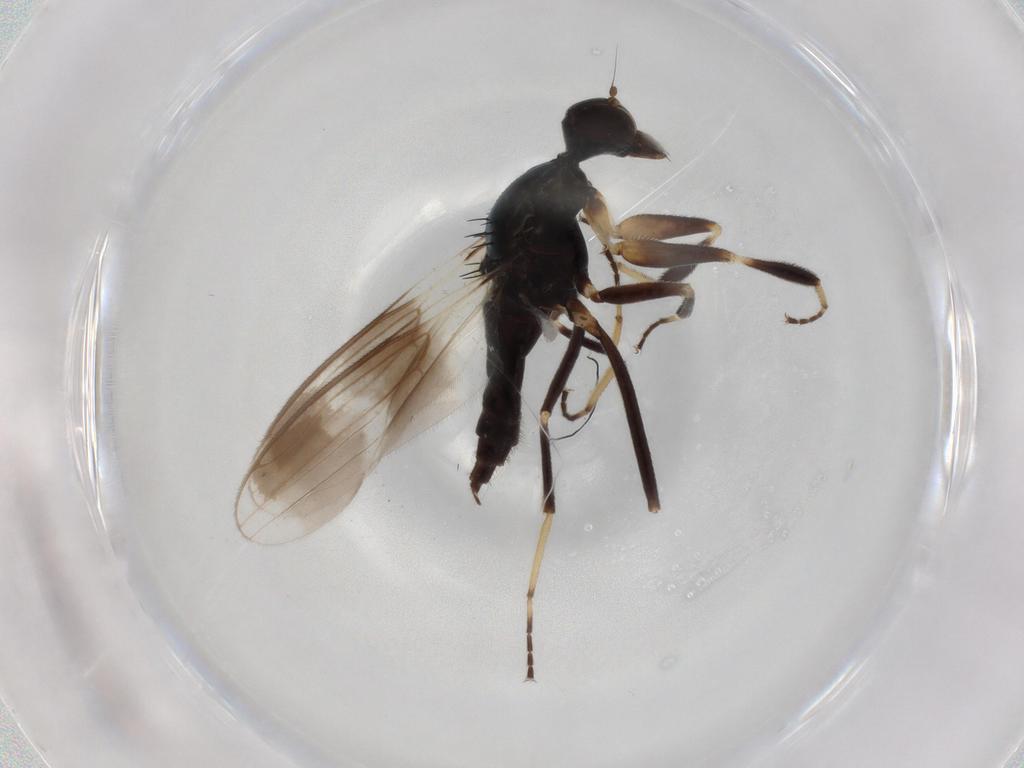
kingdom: Animalia
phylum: Arthropoda
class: Insecta
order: Diptera
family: Hybotidae
